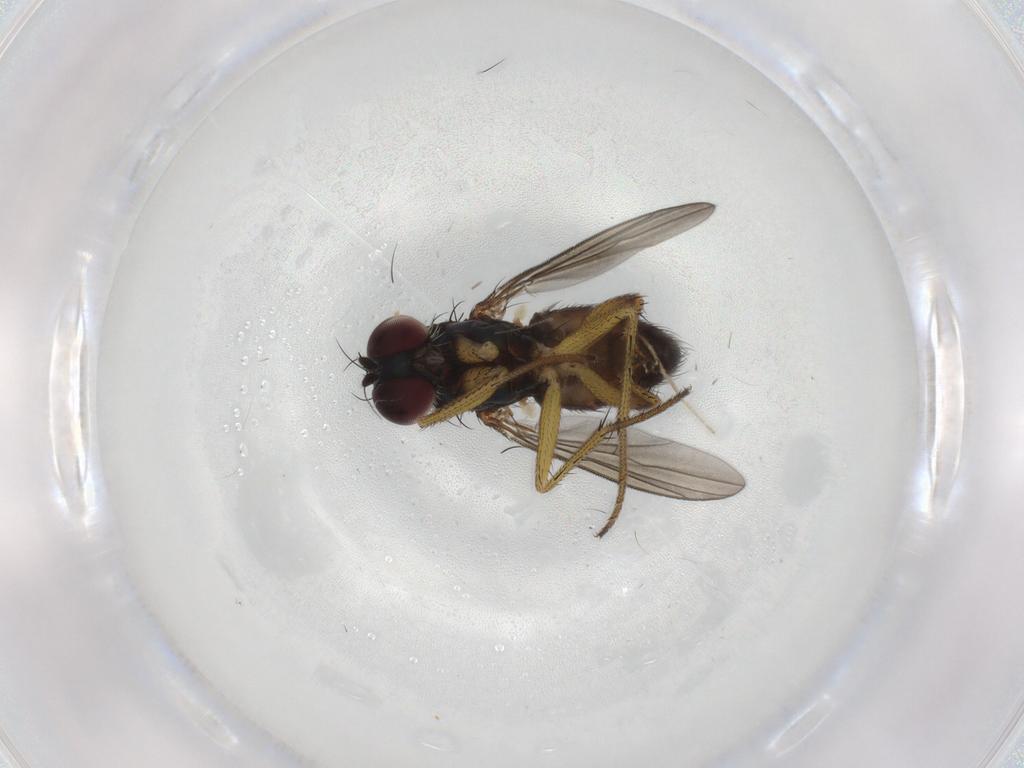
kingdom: Animalia
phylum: Arthropoda
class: Insecta
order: Diptera
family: Dolichopodidae
